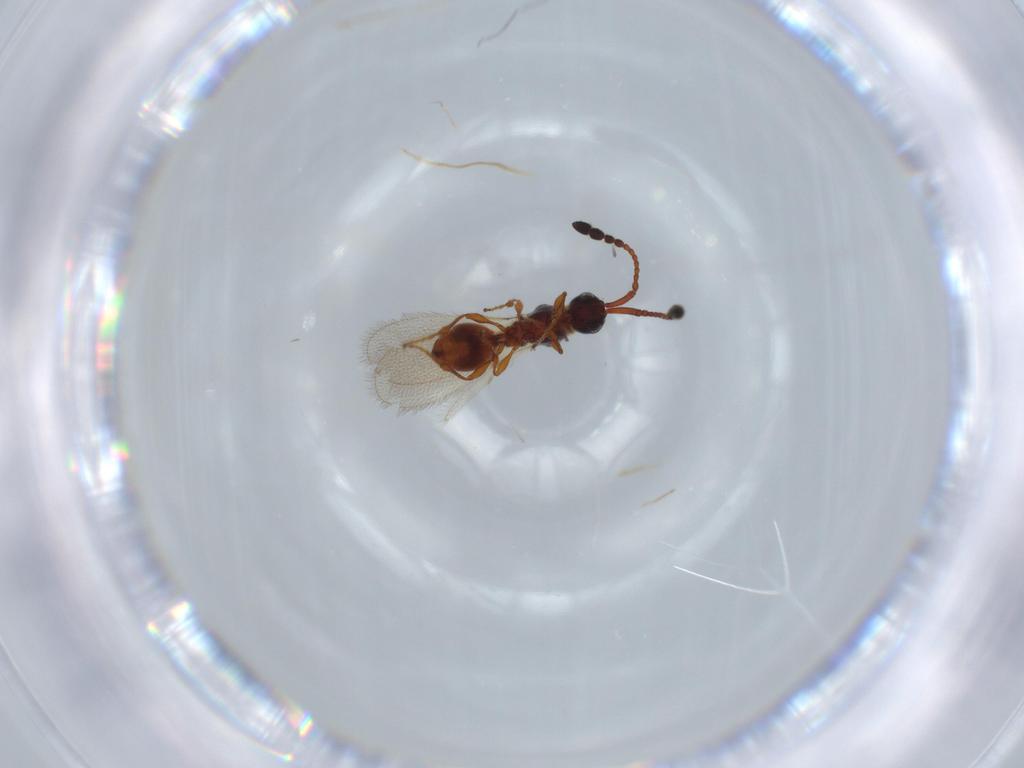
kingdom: Animalia
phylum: Arthropoda
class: Insecta
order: Hymenoptera
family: Diapriidae
